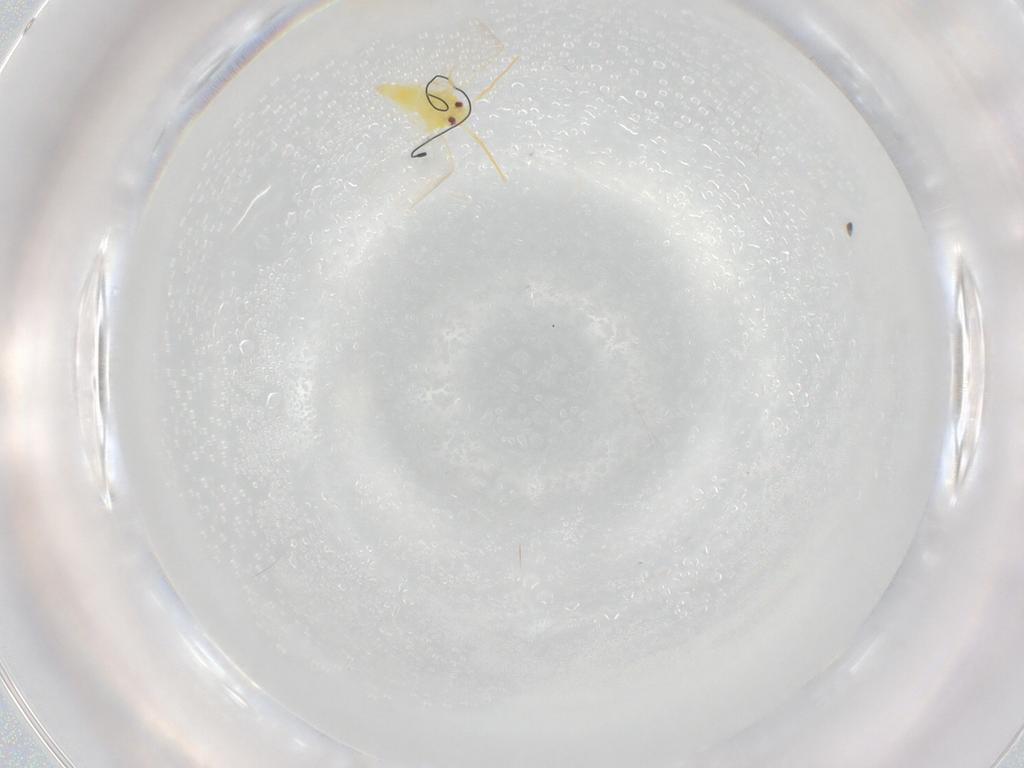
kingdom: Animalia
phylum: Arthropoda
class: Insecta
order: Hemiptera
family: Aleyrodidae
